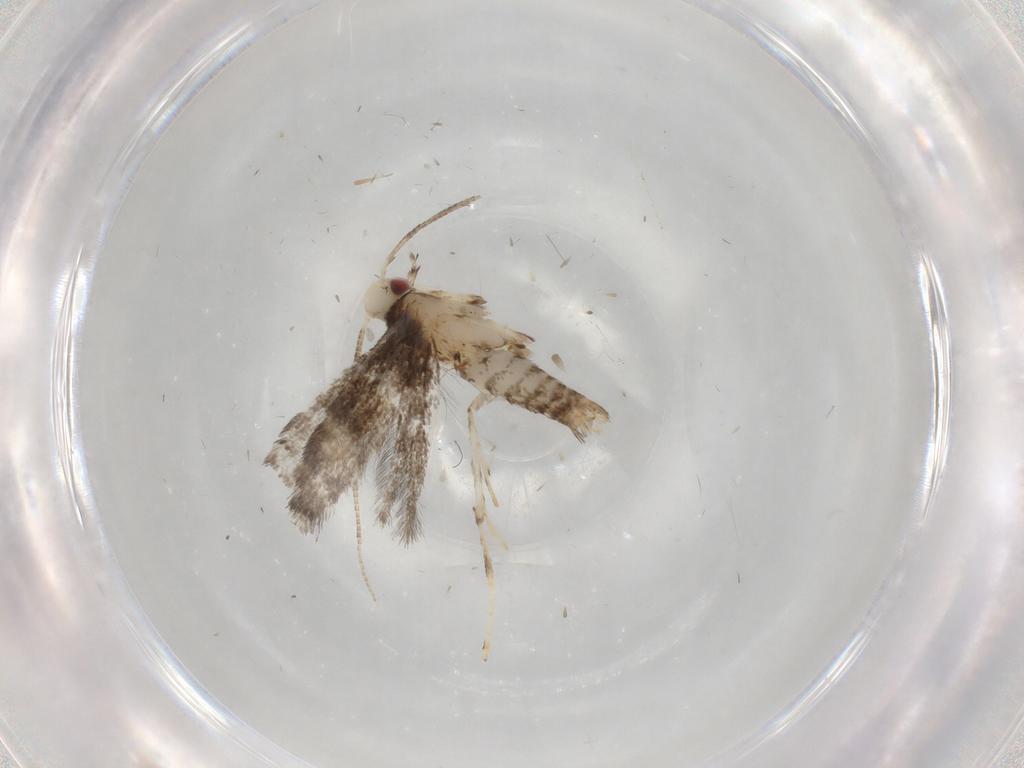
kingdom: Animalia
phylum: Arthropoda
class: Insecta
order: Lepidoptera
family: Gracillariidae
